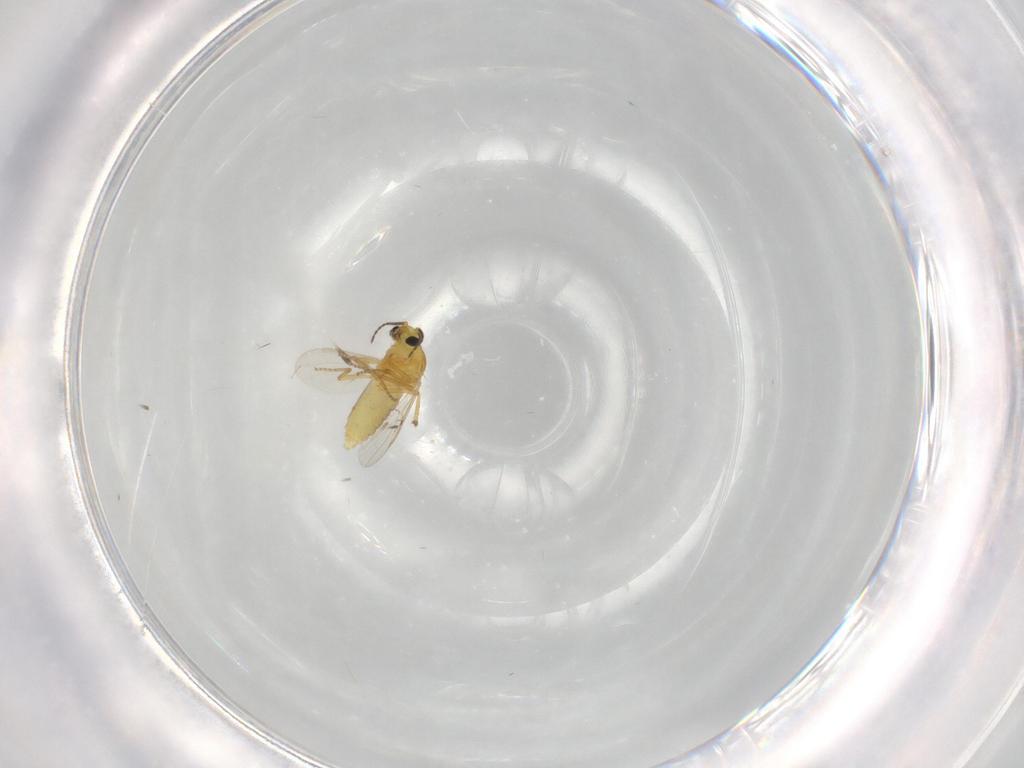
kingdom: Animalia
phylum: Arthropoda
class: Insecta
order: Diptera
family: Ceratopogonidae
